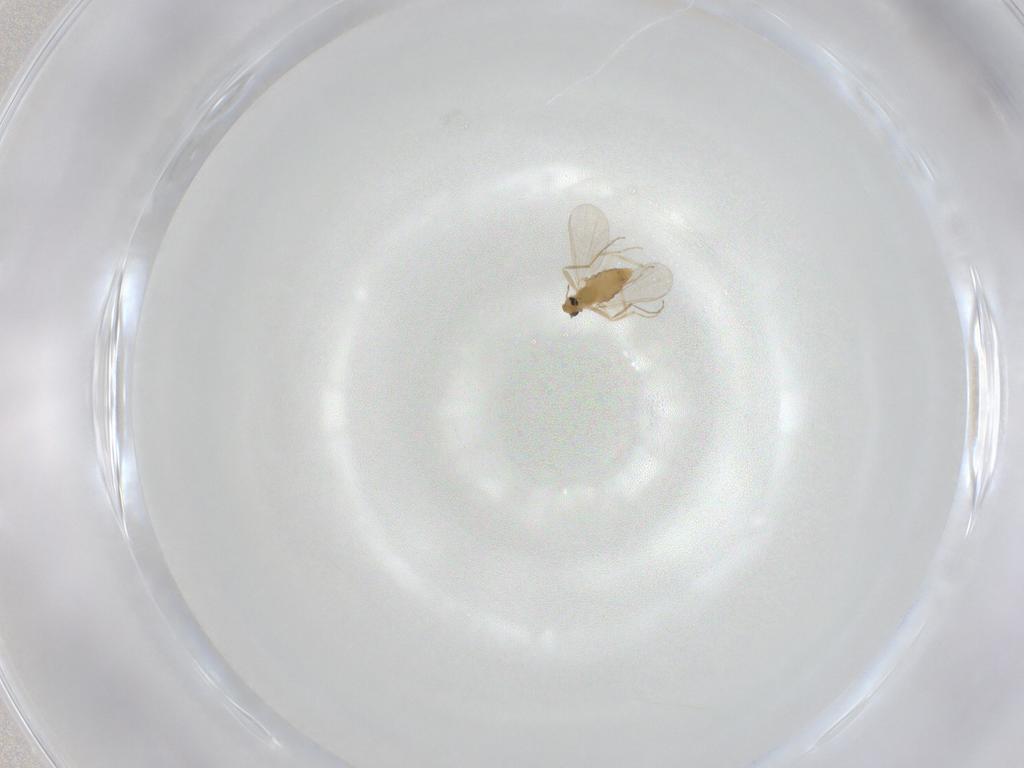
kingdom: Animalia
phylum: Arthropoda
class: Insecta
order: Diptera
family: Chironomidae
